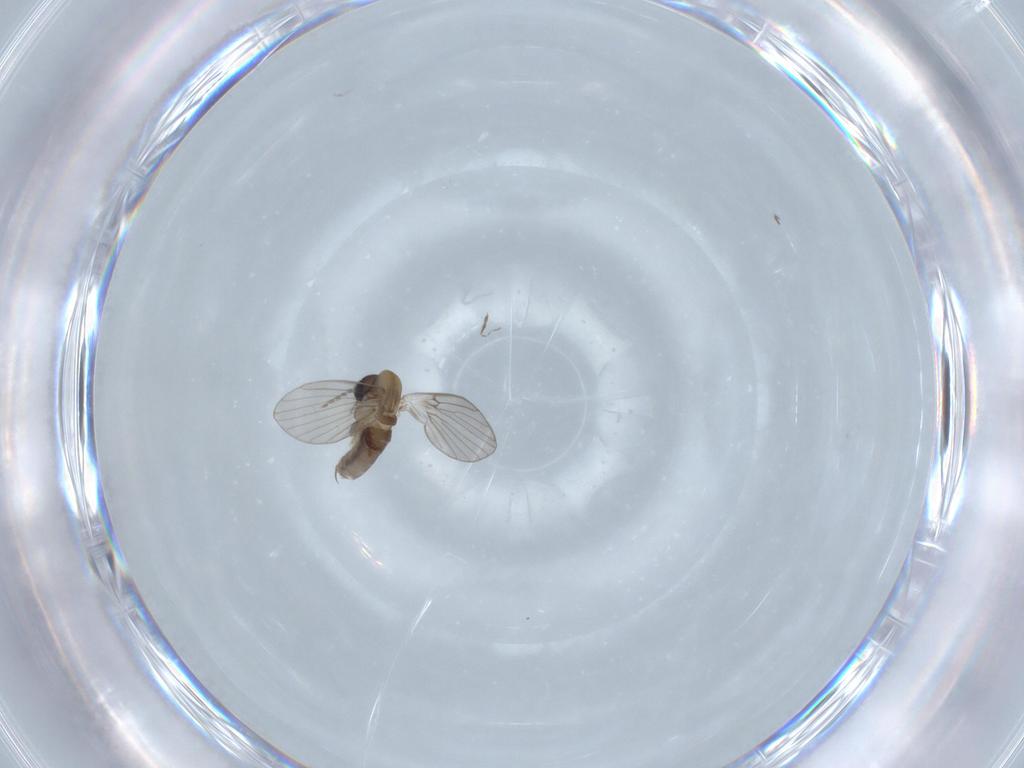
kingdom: Animalia
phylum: Arthropoda
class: Insecta
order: Diptera
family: Psychodidae
